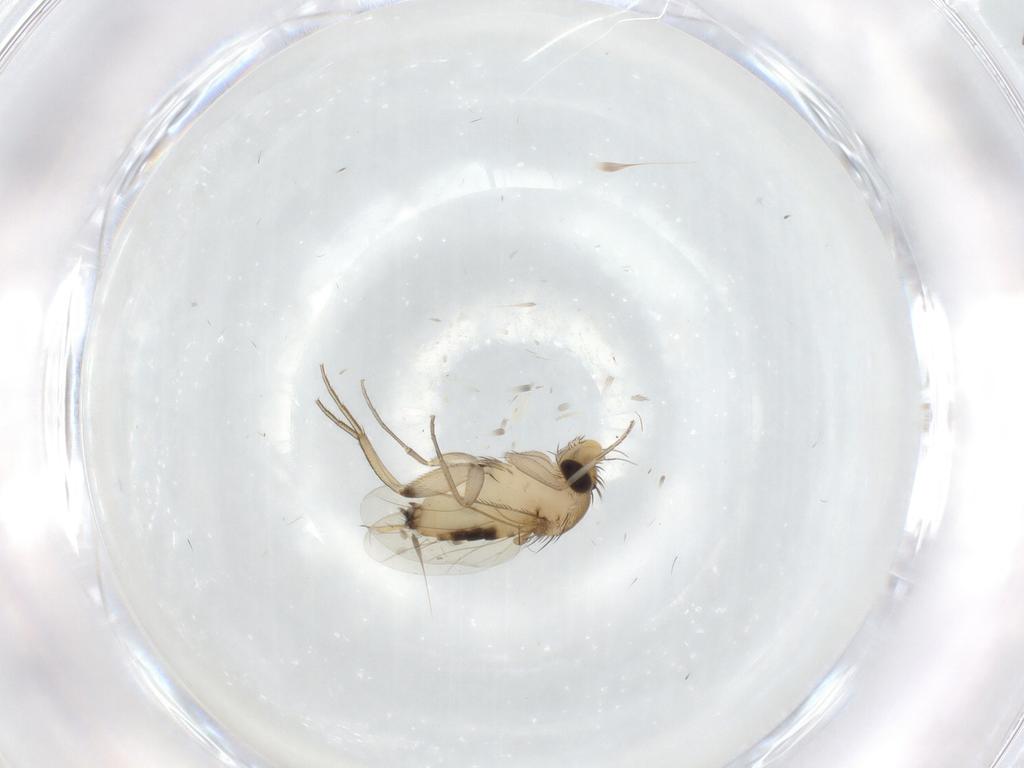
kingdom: Animalia
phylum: Arthropoda
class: Insecta
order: Diptera
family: Phoridae
